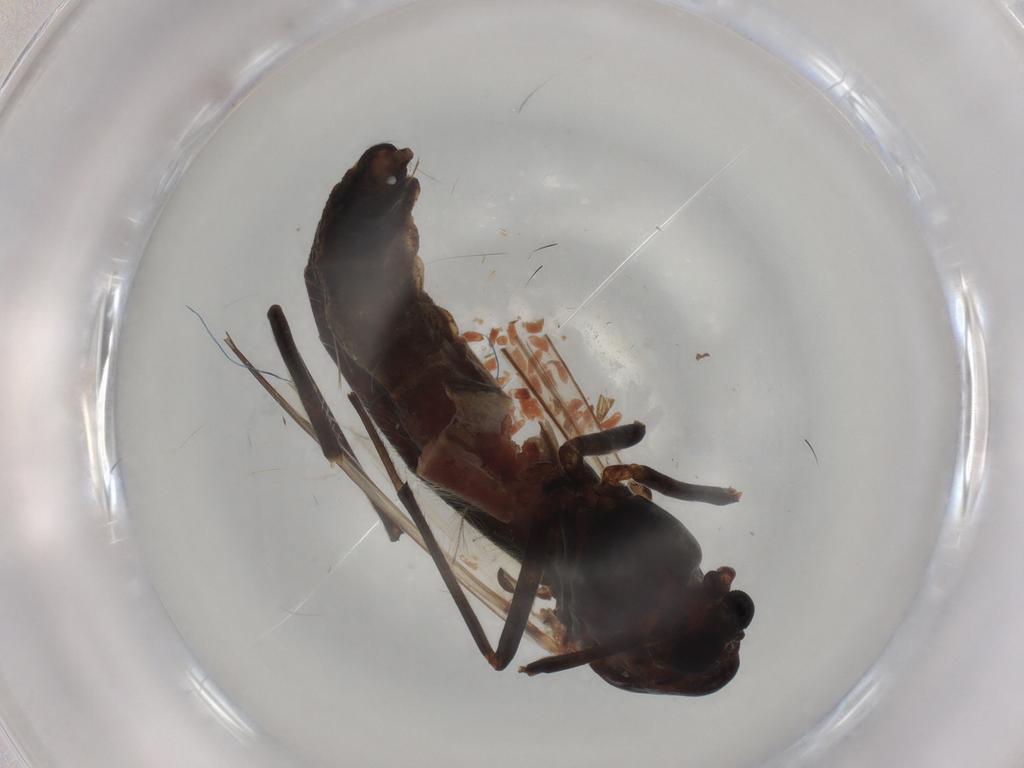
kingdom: Animalia
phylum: Arthropoda
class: Insecta
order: Diptera
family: Chironomidae
